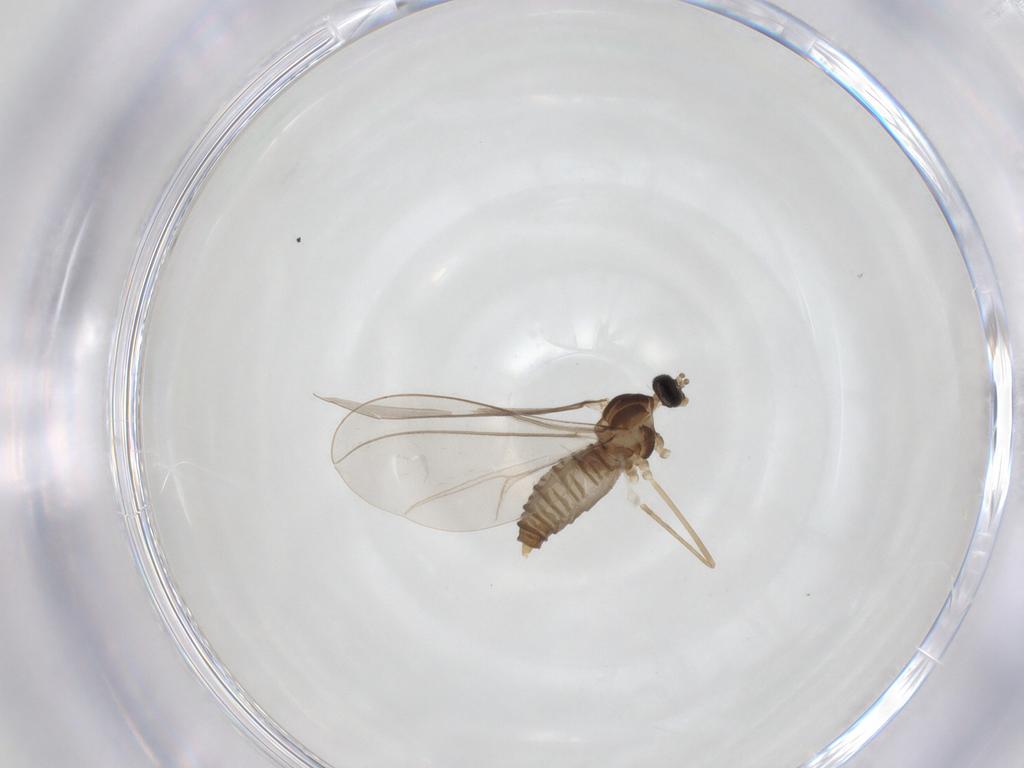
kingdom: Animalia
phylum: Arthropoda
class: Insecta
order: Diptera
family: Cecidomyiidae
